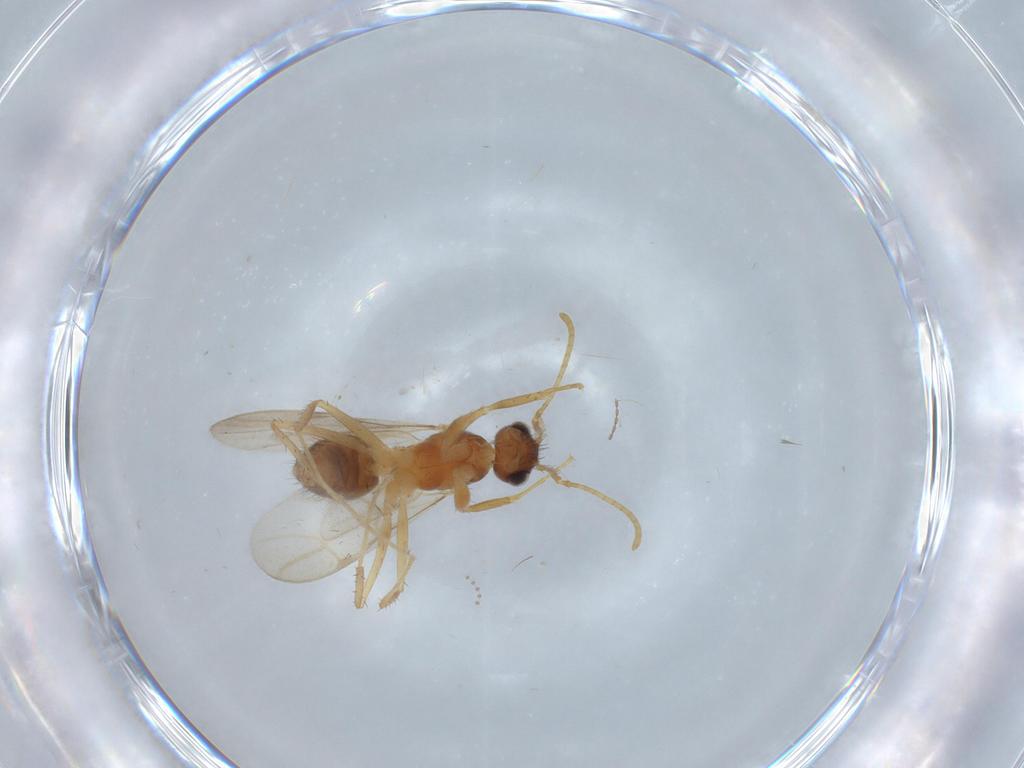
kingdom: Animalia
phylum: Arthropoda
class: Insecta
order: Hymenoptera
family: Formicidae
